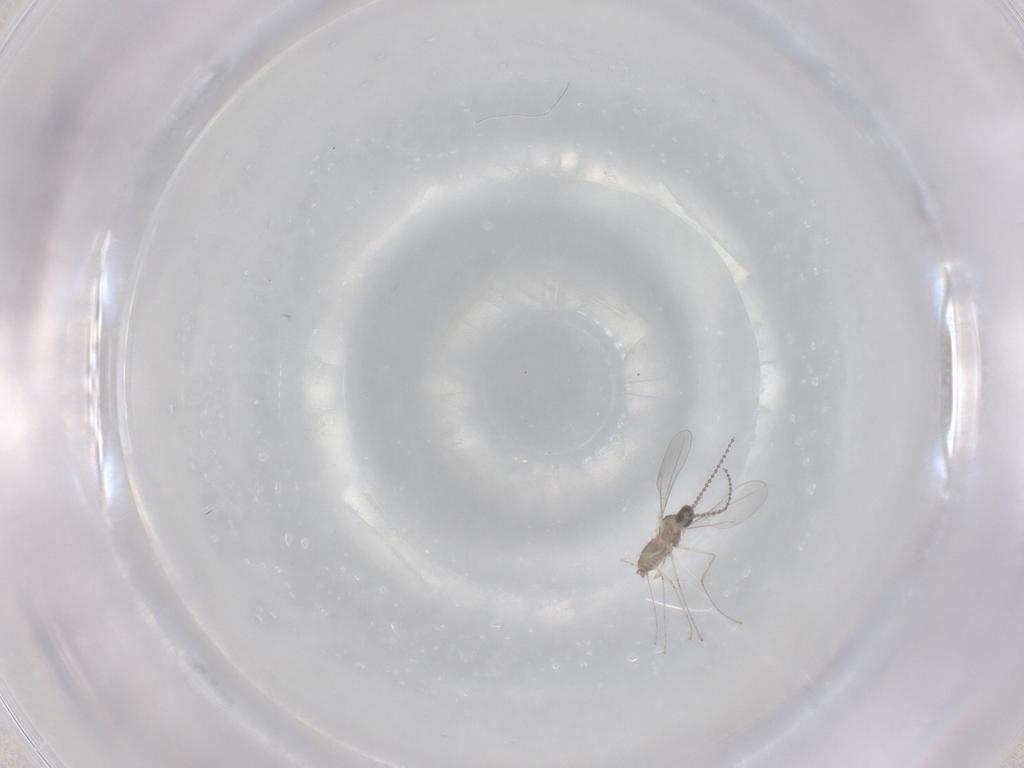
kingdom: Animalia
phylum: Arthropoda
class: Insecta
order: Diptera
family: Cecidomyiidae
